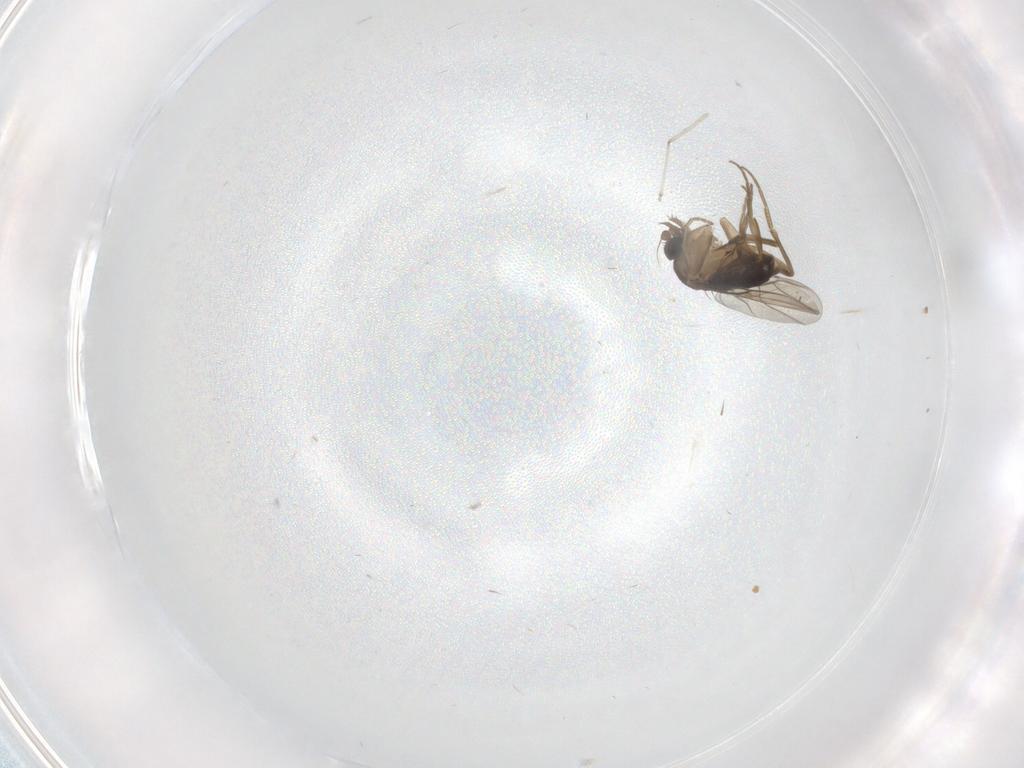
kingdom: Animalia
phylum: Arthropoda
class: Insecta
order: Diptera
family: Phoridae
